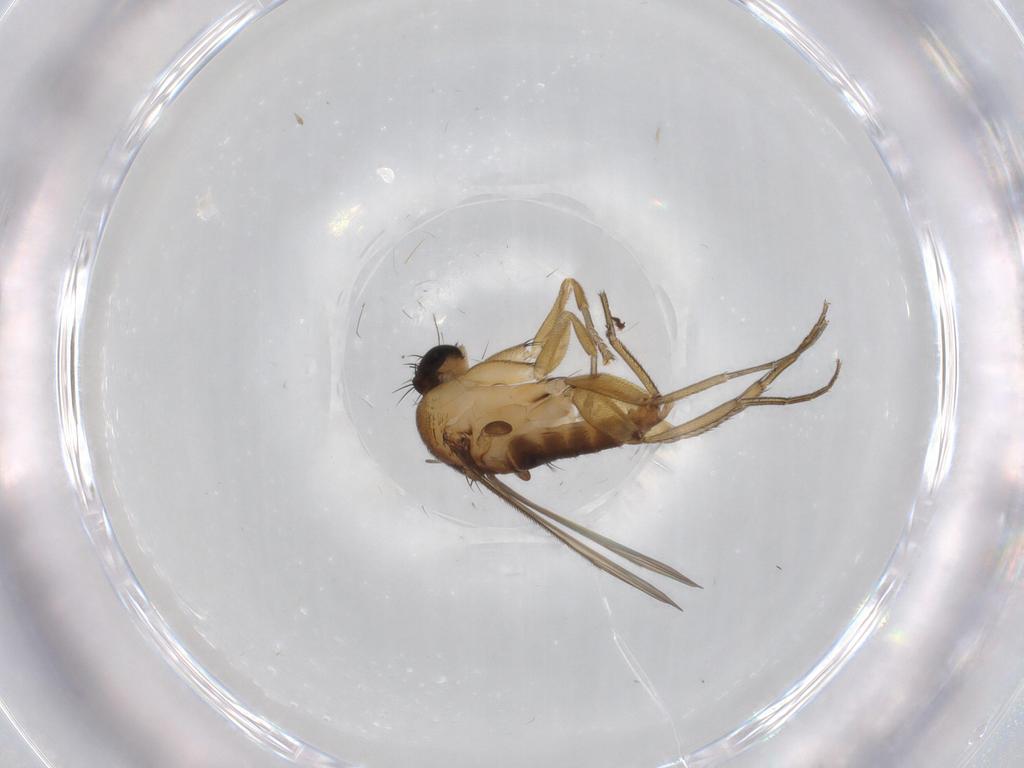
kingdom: Animalia
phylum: Arthropoda
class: Insecta
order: Diptera
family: Phoridae
